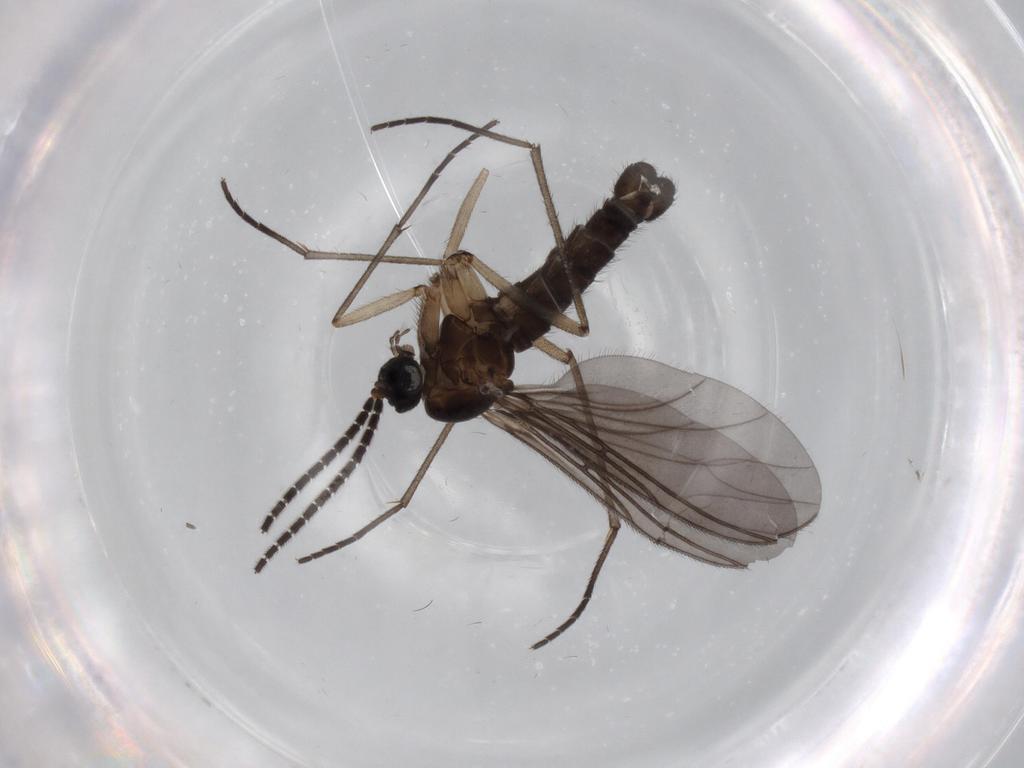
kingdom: Animalia
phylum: Arthropoda
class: Insecta
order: Diptera
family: Sciaridae
